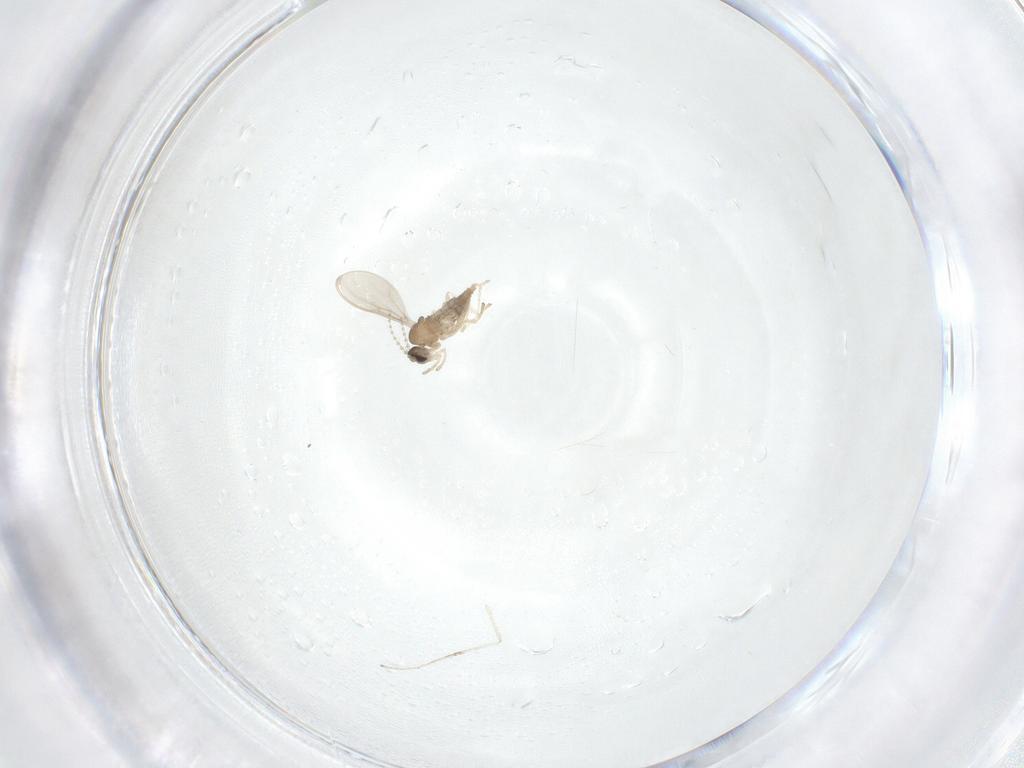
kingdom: Animalia
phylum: Arthropoda
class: Insecta
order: Diptera
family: Cecidomyiidae
